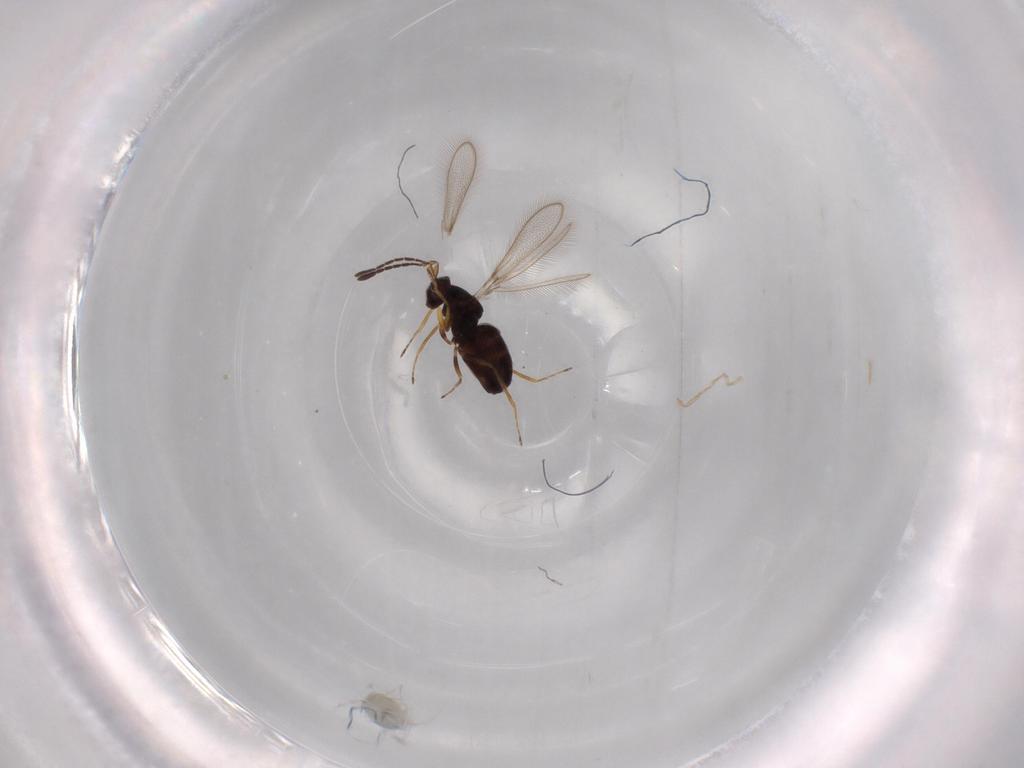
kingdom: Animalia
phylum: Arthropoda
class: Insecta
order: Hymenoptera
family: Mymaridae
